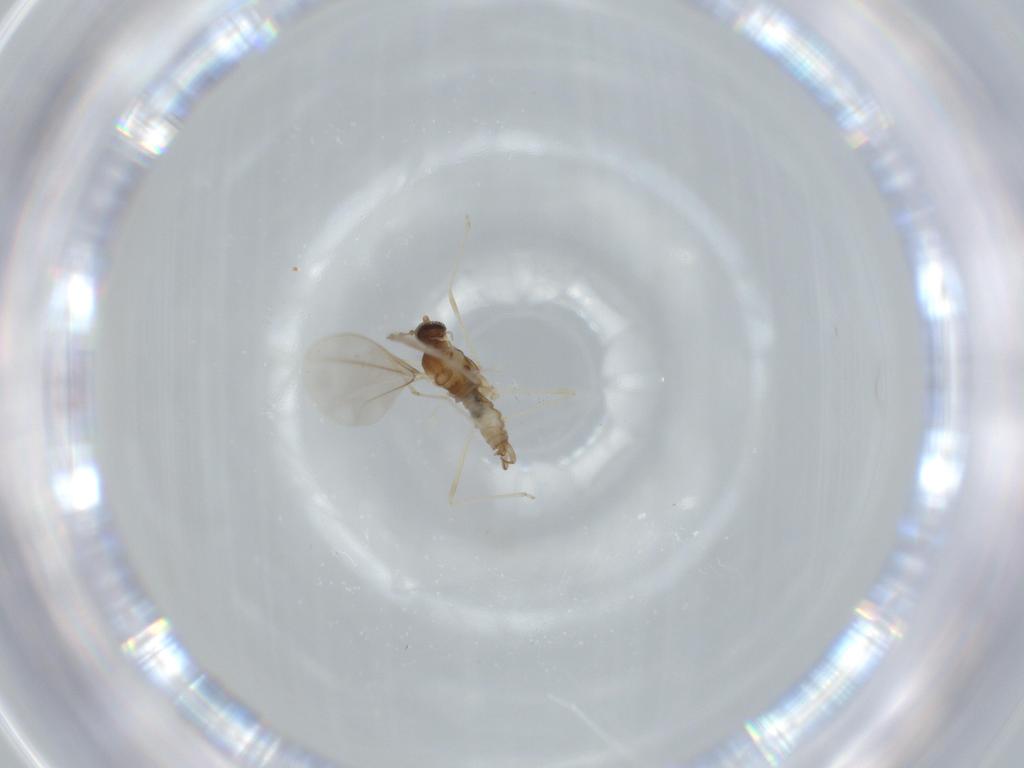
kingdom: Animalia
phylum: Arthropoda
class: Insecta
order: Diptera
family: Cecidomyiidae
